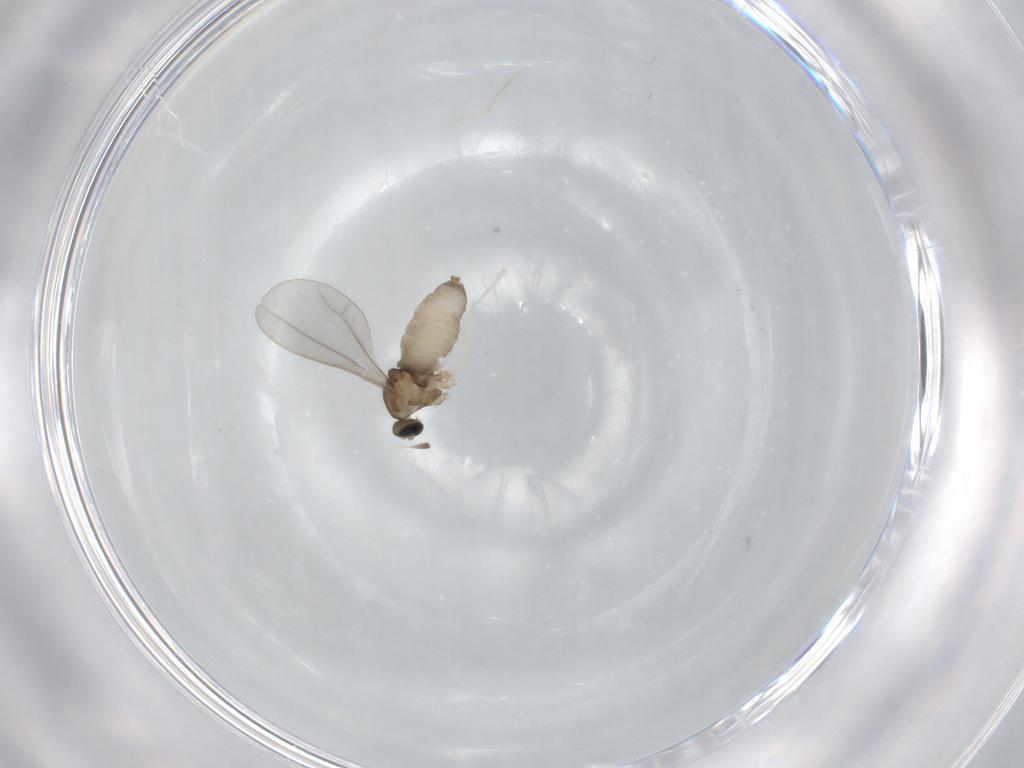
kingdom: Animalia
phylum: Arthropoda
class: Insecta
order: Diptera
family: Cecidomyiidae
